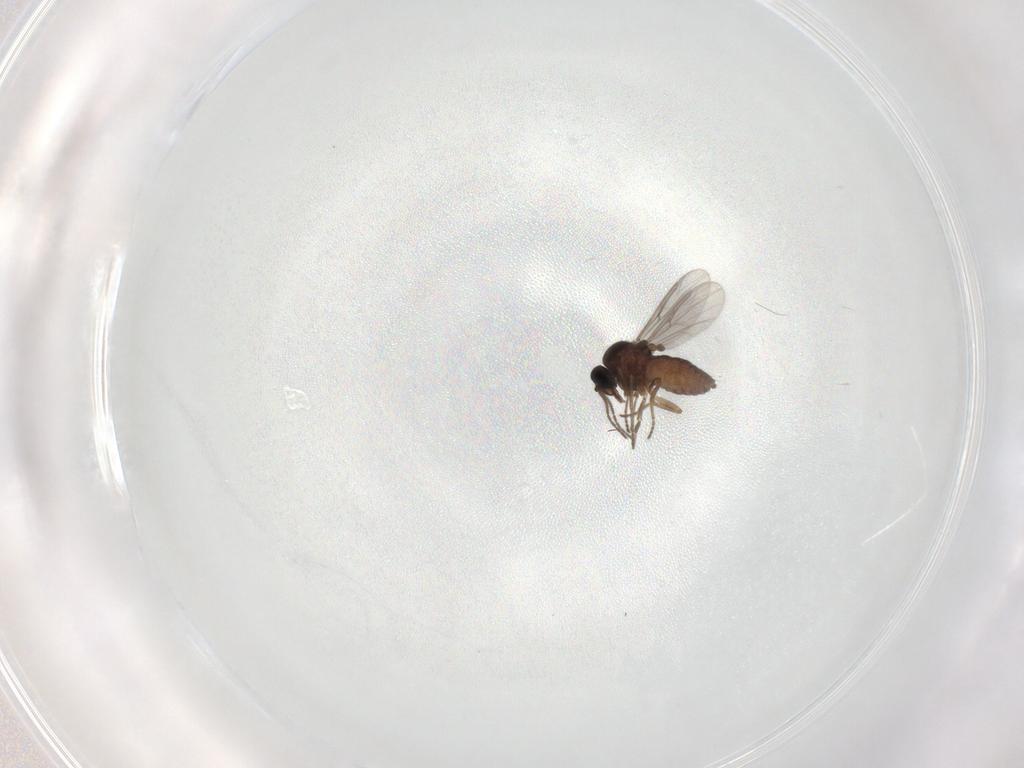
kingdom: Animalia
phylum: Arthropoda
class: Insecta
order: Diptera
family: Ceratopogonidae
